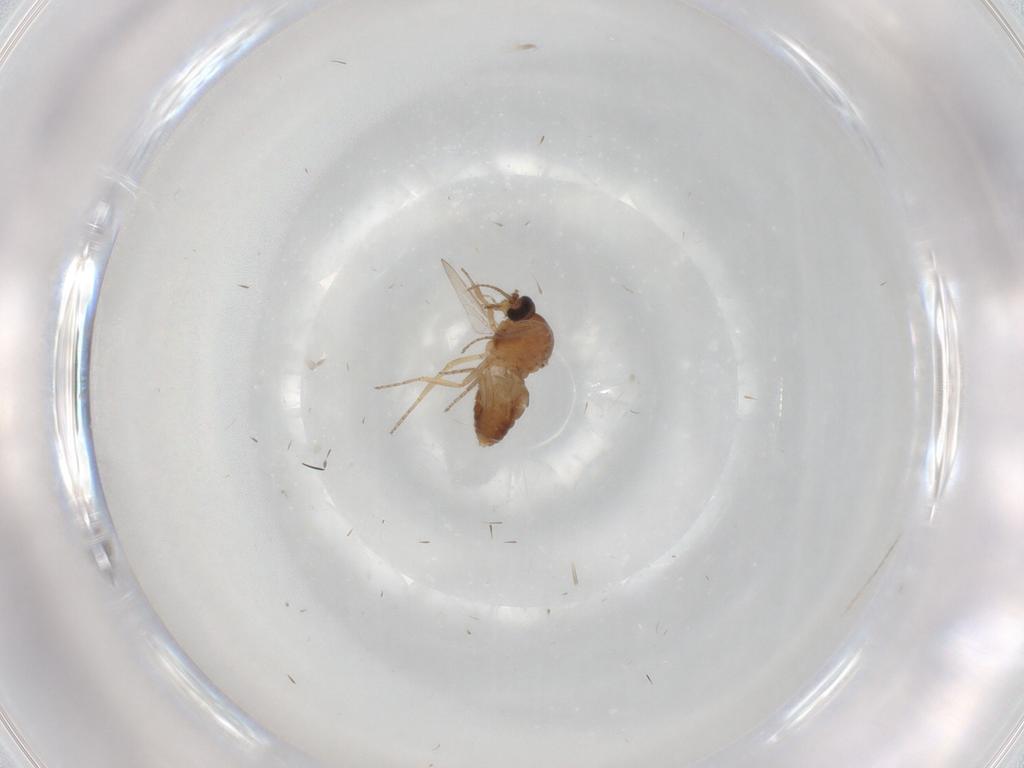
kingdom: Animalia
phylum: Arthropoda
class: Insecta
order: Diptera
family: Ceratopogonidae
